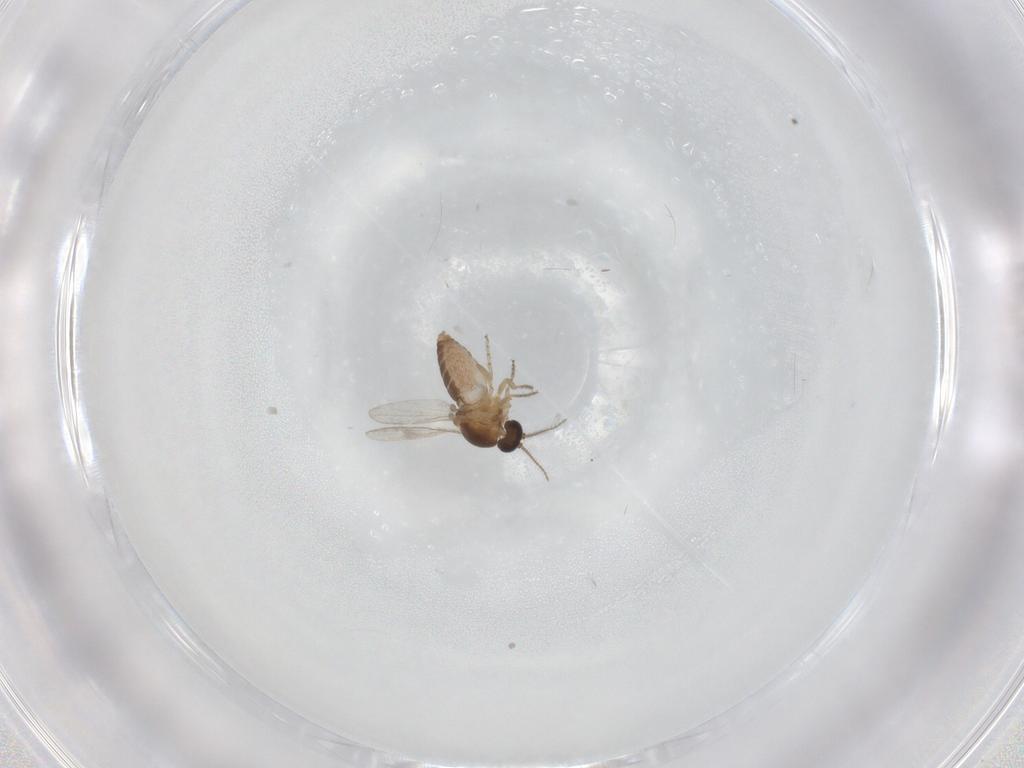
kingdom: Animalia
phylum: Arthropoda
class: Insecta
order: Diptera
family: Ceratopogonidae
